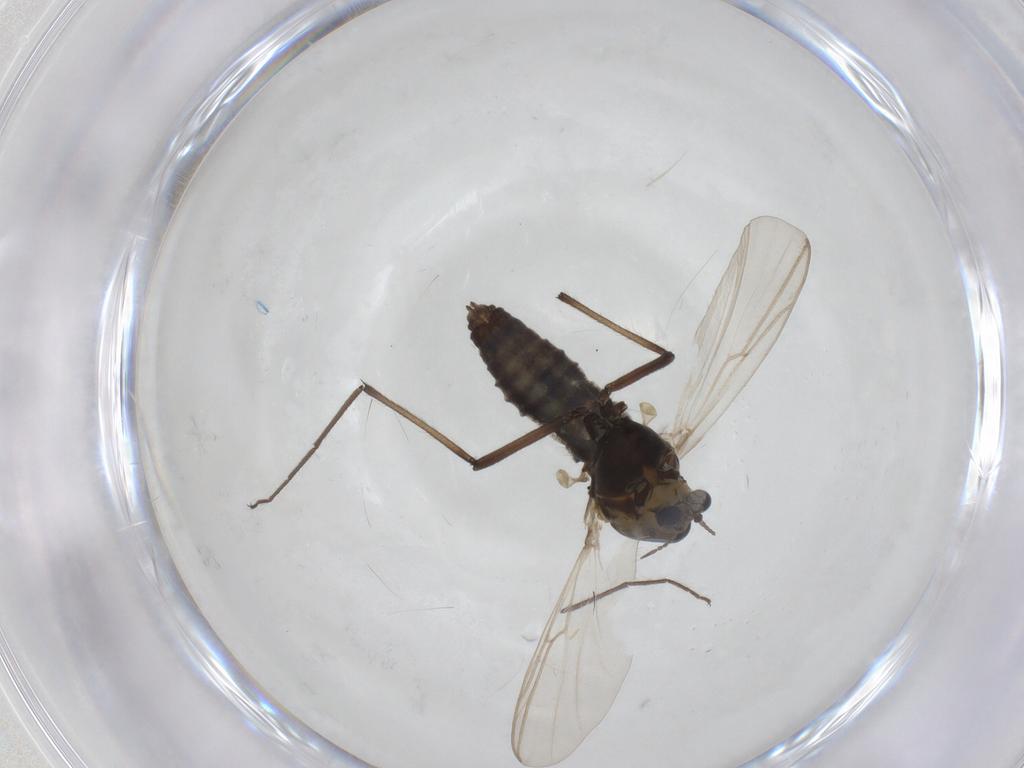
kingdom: Animalia
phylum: Arthropoda
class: Insecta
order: Diptera
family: Chironomidae
